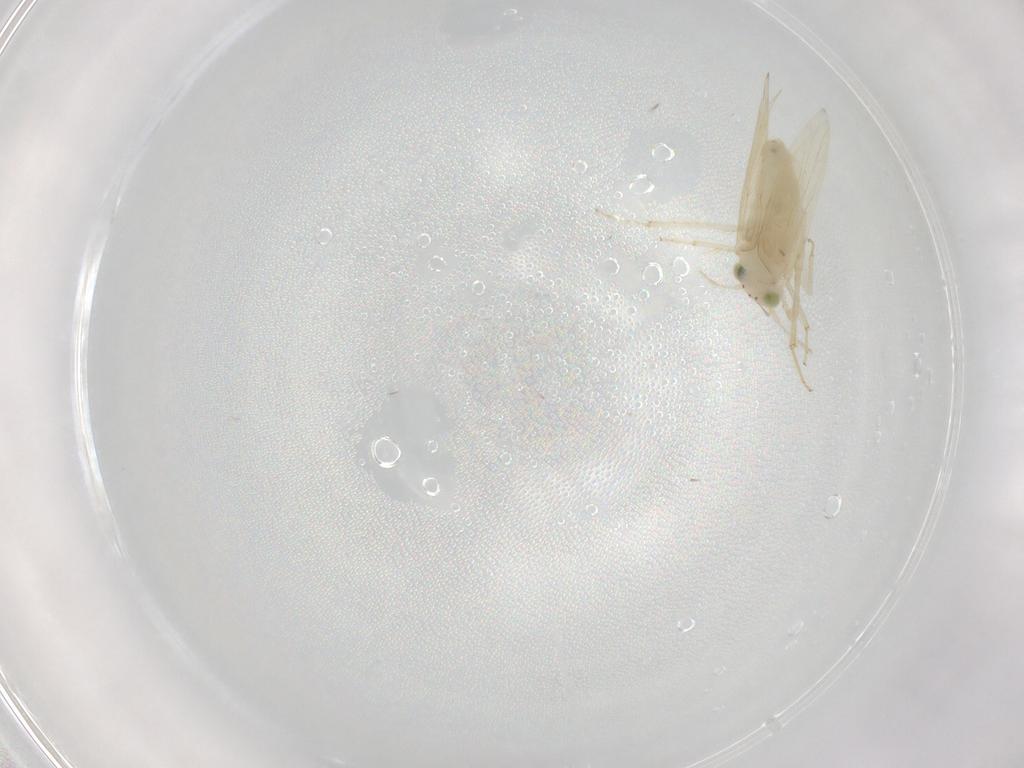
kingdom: Animalia
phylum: Arthropoda
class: Insecta
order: Psocodea
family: Lepidopsocidae
